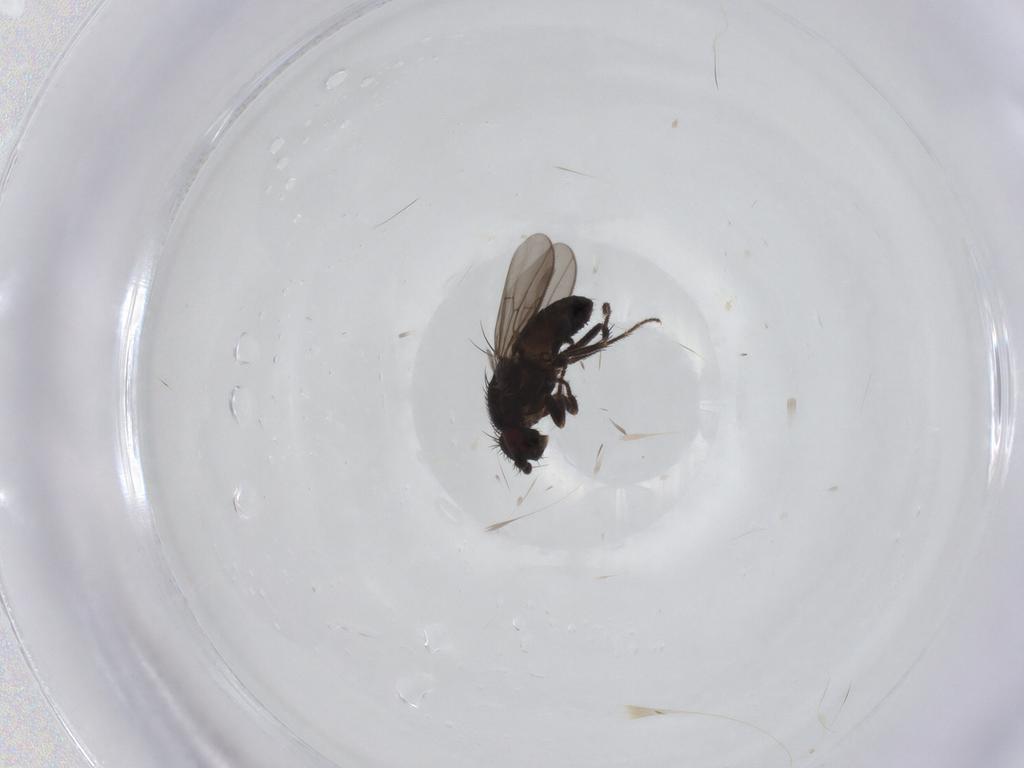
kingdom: Animalia
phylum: Arthropoda
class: Insecta
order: Diptera
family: Sphaeroceridae
